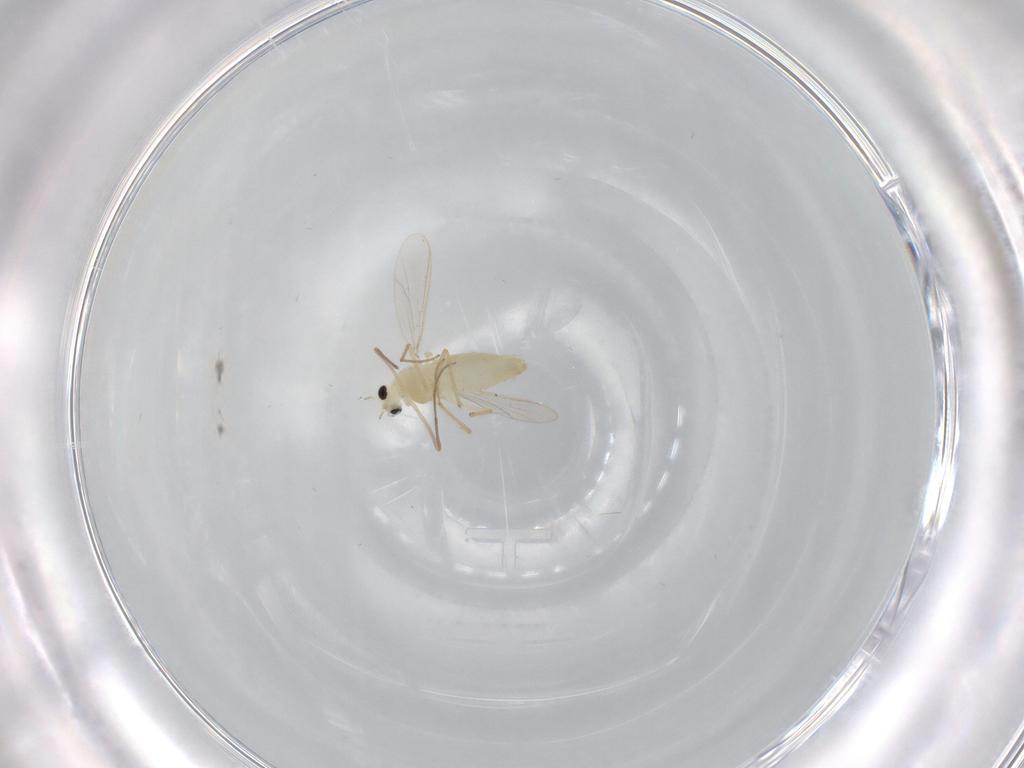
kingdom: Animalia
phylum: Arthropoda
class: Insecta
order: Diptera
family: Chironomidae
